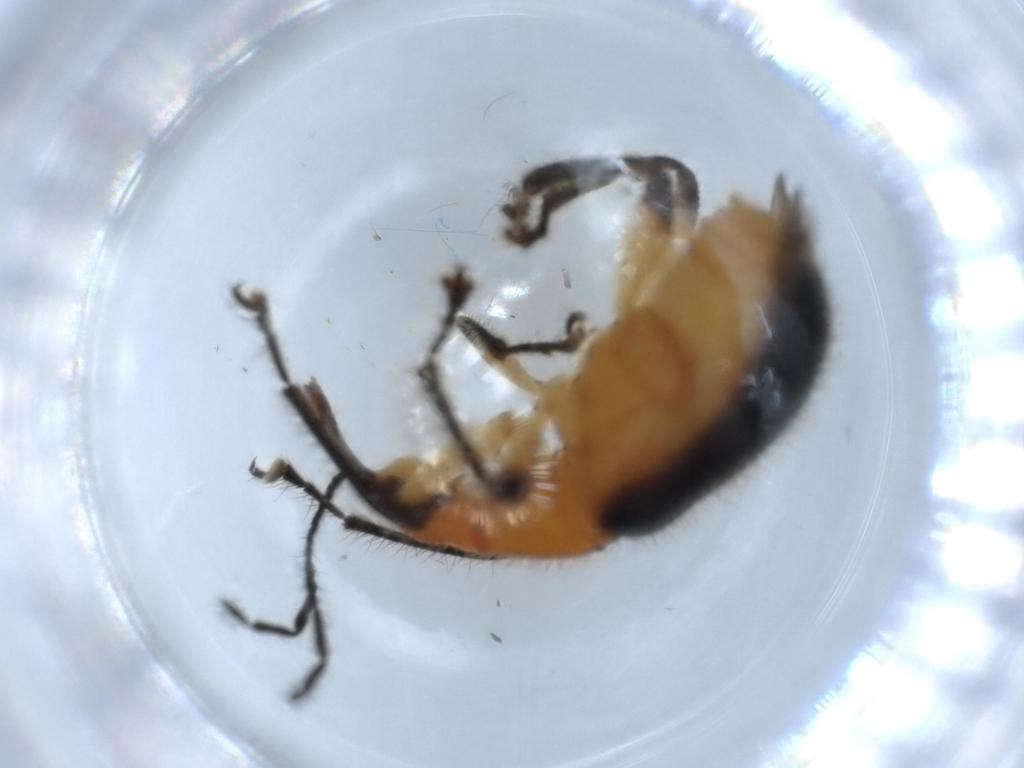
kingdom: Animalia
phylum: Arthropoda
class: Insecta
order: Coleoptera
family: Attelabidae
